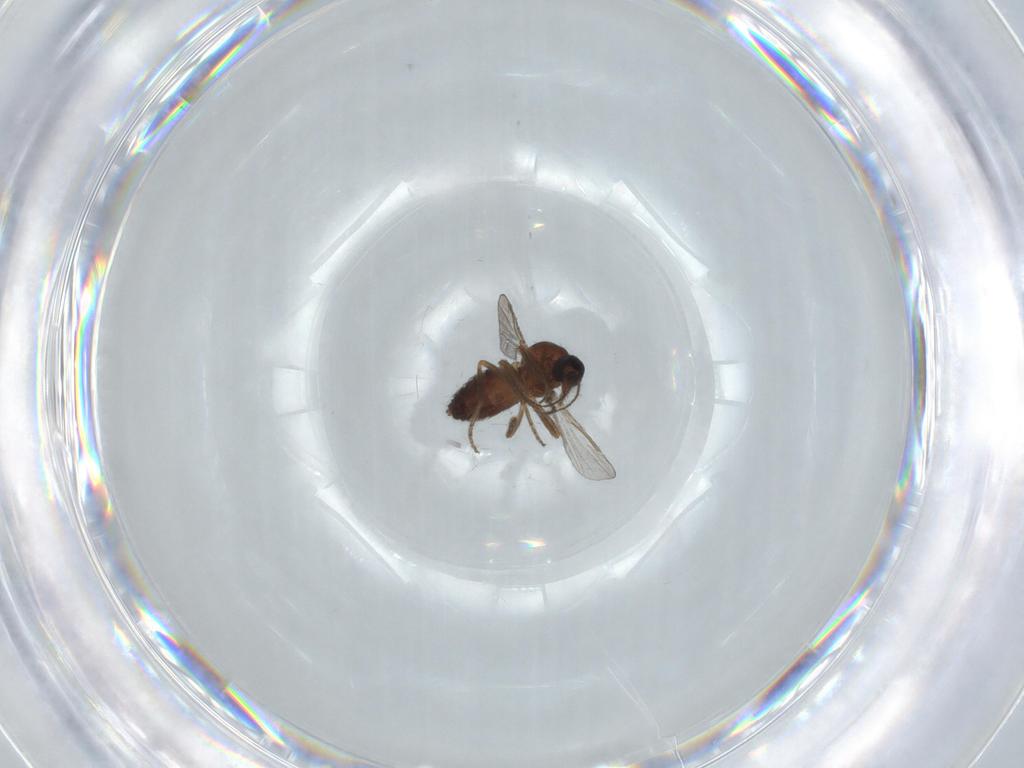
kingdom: Animalia
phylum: Arthropoda
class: Insecta
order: Diptera
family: Ceratopogonidae
